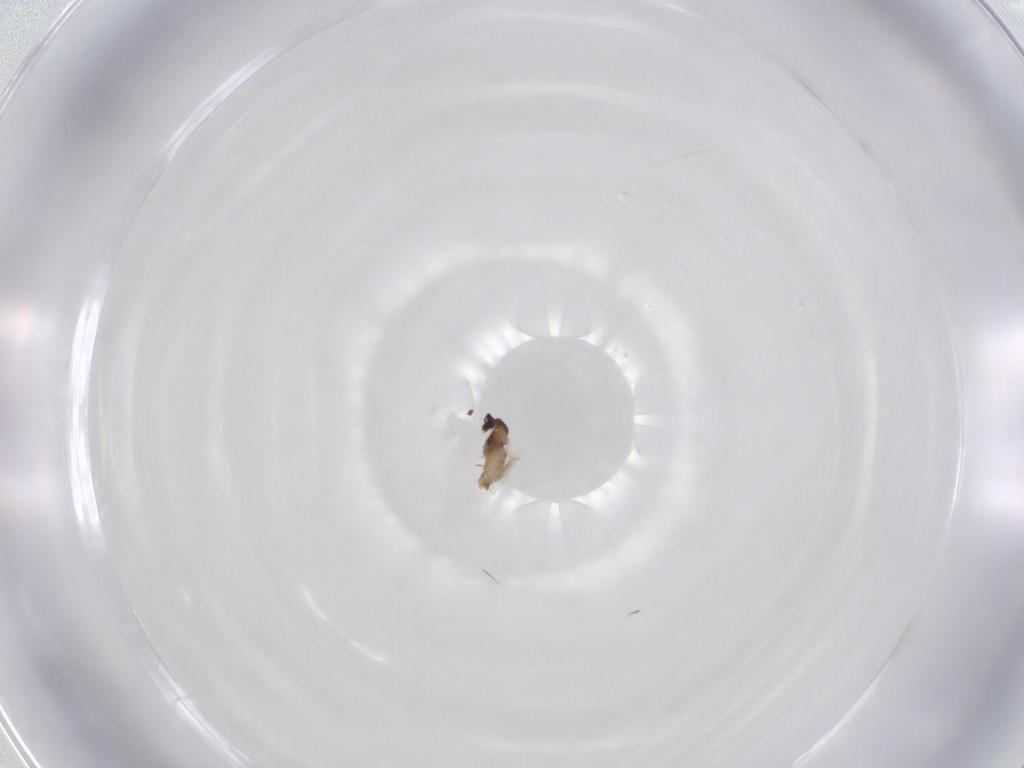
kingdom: Animalia
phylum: Arthropoda
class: Insecta
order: Diptera
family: Cecidomyiidae
